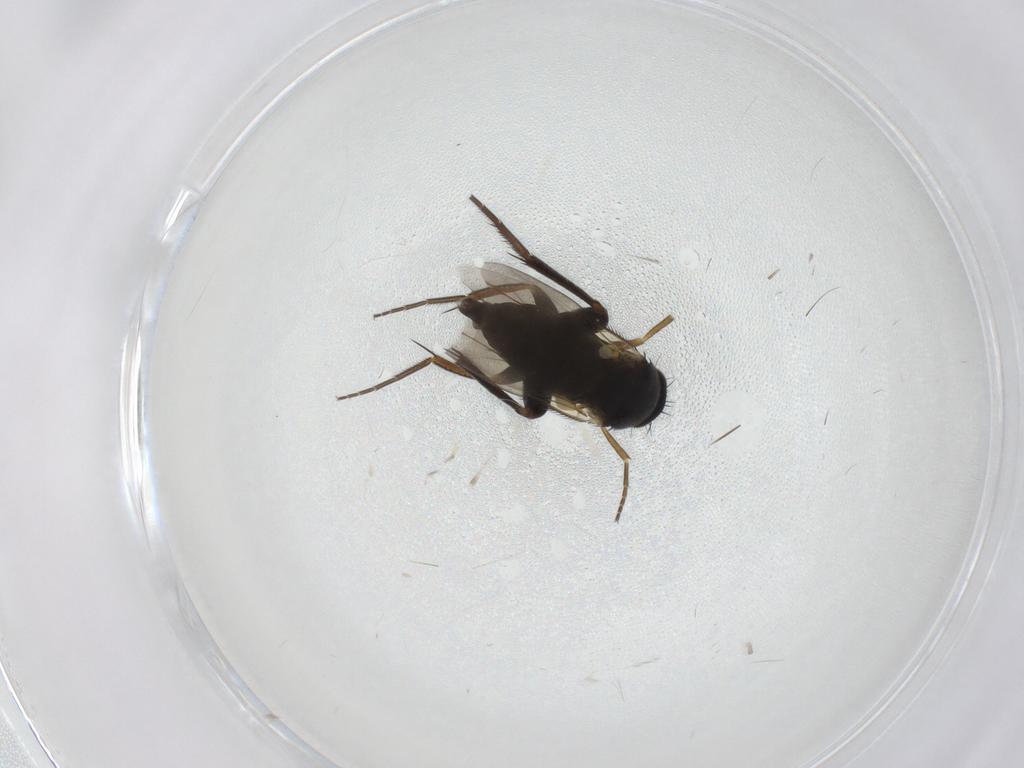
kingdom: Animalia
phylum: Arthropoda
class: Insecta
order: Diptera
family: Phoridae
